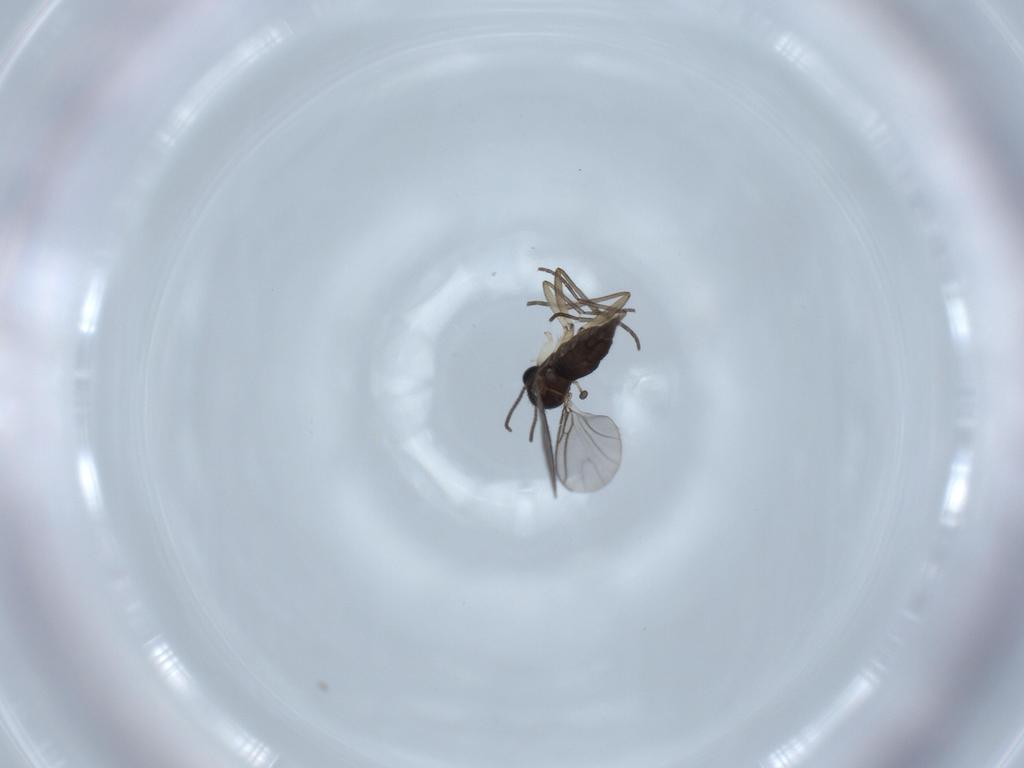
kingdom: Animalia
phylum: Arthropoda
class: Insecta
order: Diptera
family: Sciaridae
